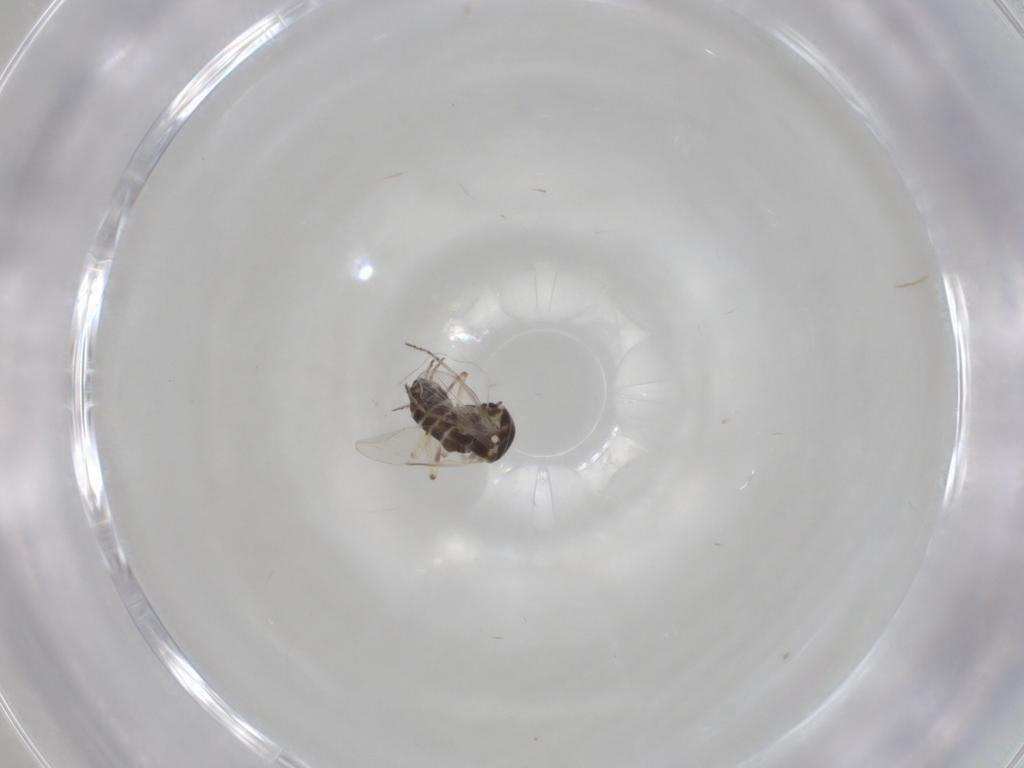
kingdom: Animalia
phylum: Arthropoda
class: Insecta
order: Diptera
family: Ceratopogonidae
